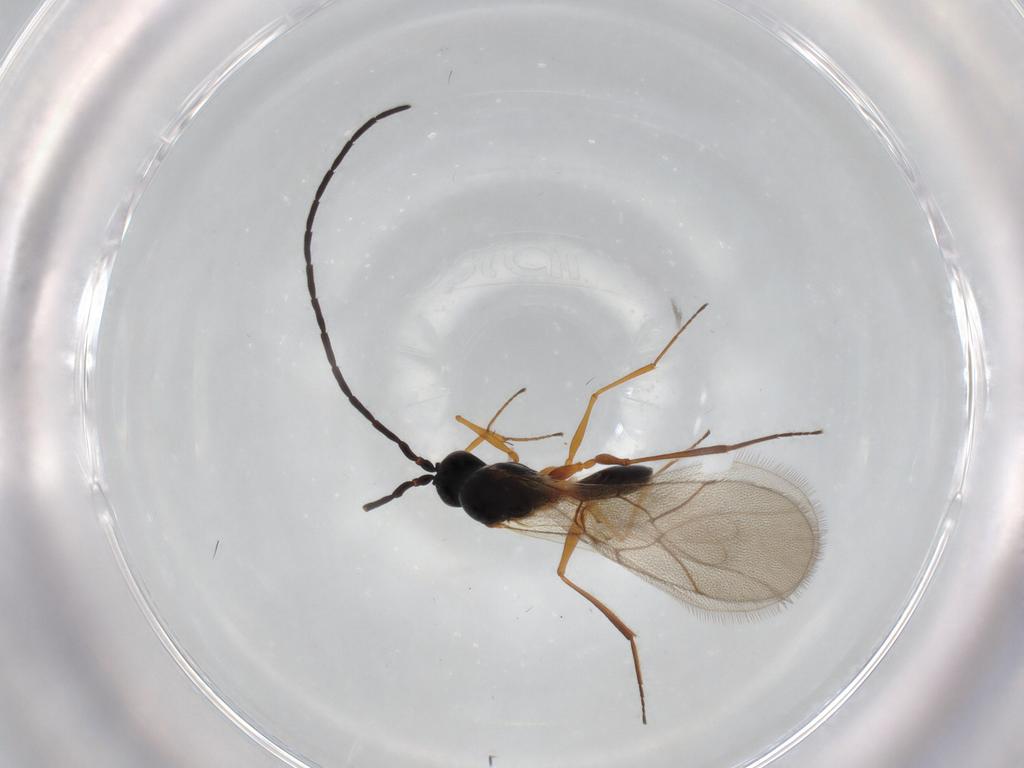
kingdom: Animalia
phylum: Arthropoda
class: Insecta
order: Hymenoptera
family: Figitidae
